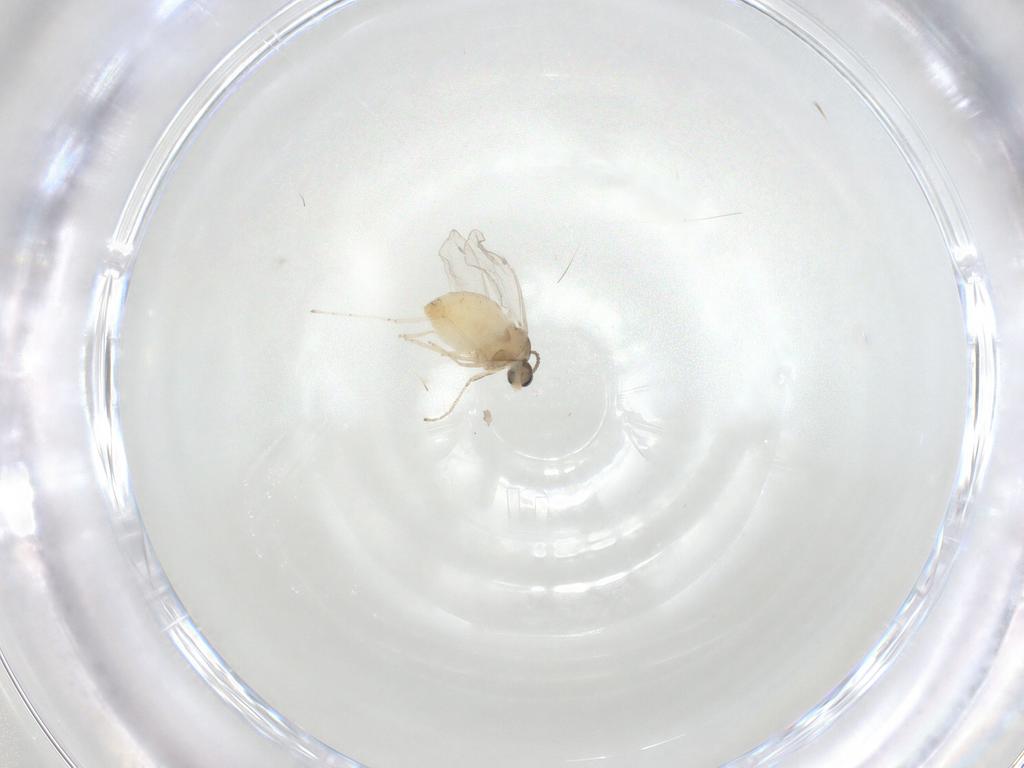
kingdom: Animalia
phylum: Arthropoda
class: Insecta
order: Diptera
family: Cecidomyiidae
